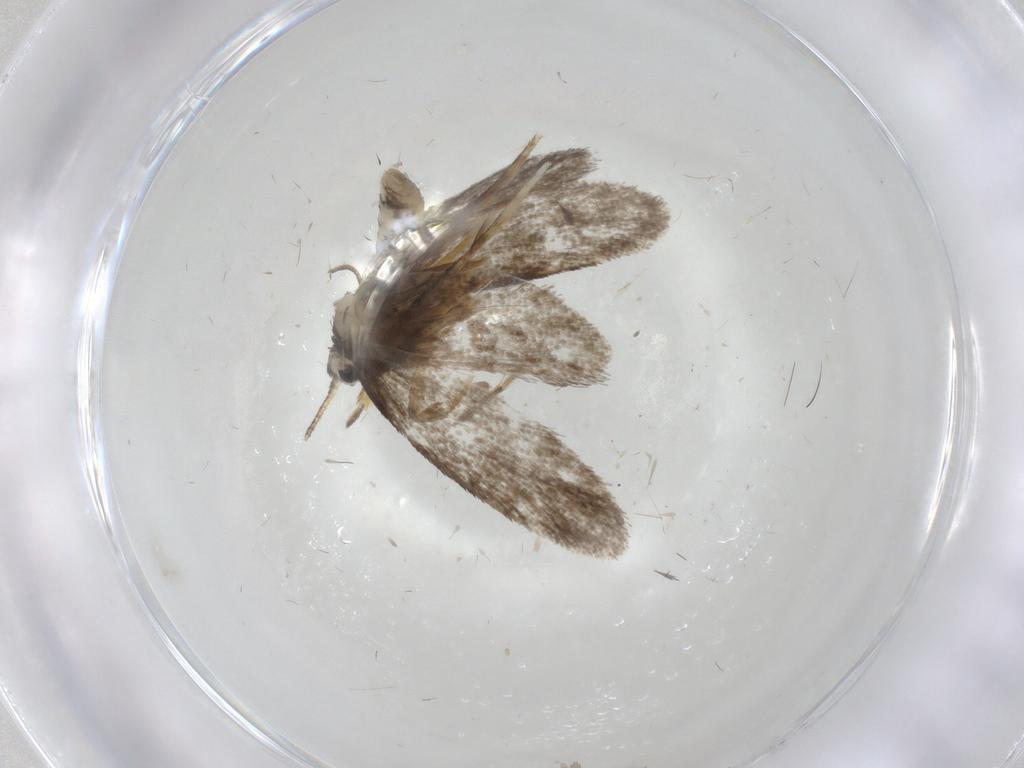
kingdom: Animalia
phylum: Arthropoda
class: Insecta
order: Lepidoptera
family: Psychidae
